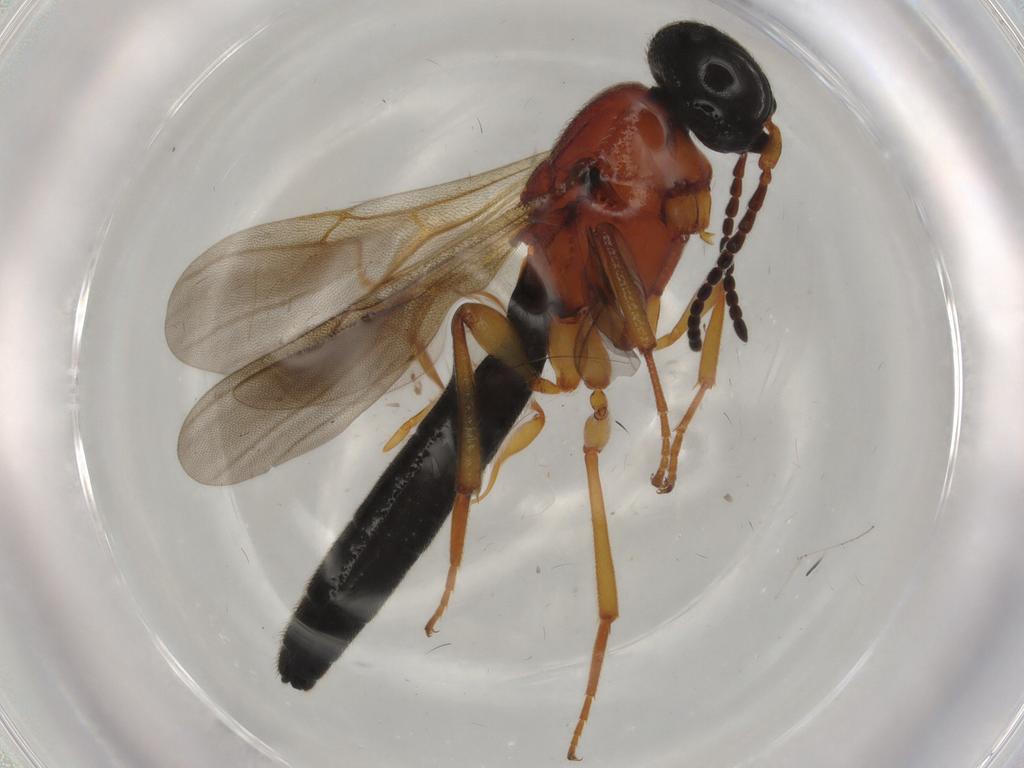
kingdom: Animalia
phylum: Arthropoda
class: Insecta
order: Hymenoptera
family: Scelionidae
